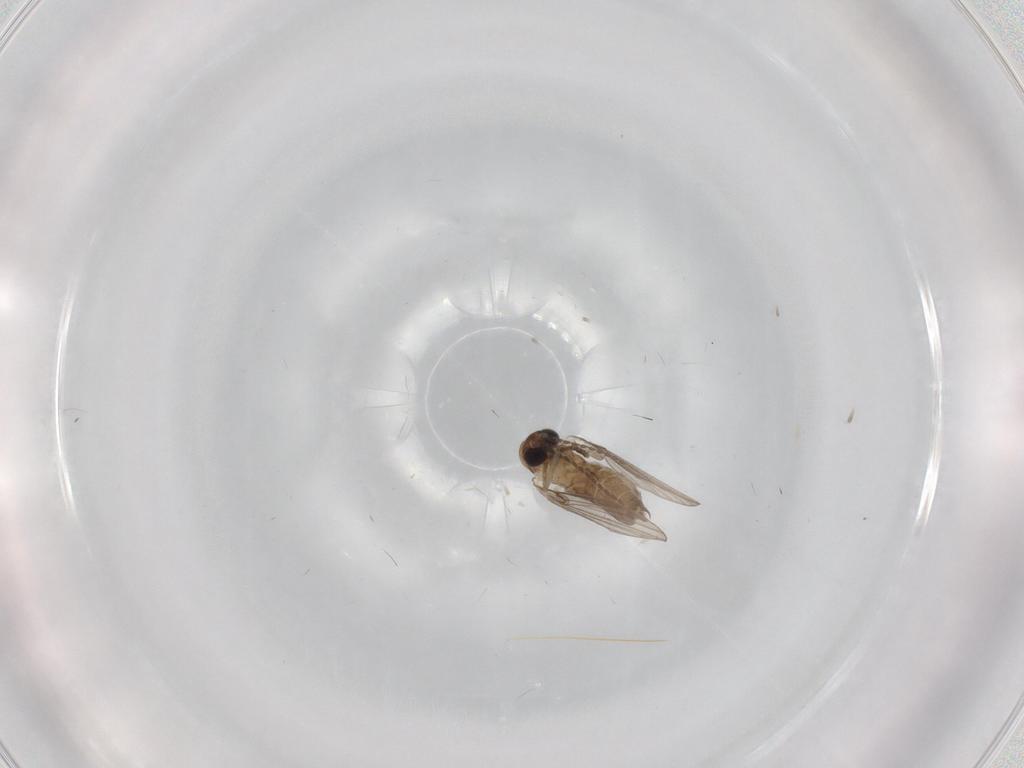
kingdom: Animalia
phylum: Arthropoda
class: Insecta
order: Diptera
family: Psychodidae
